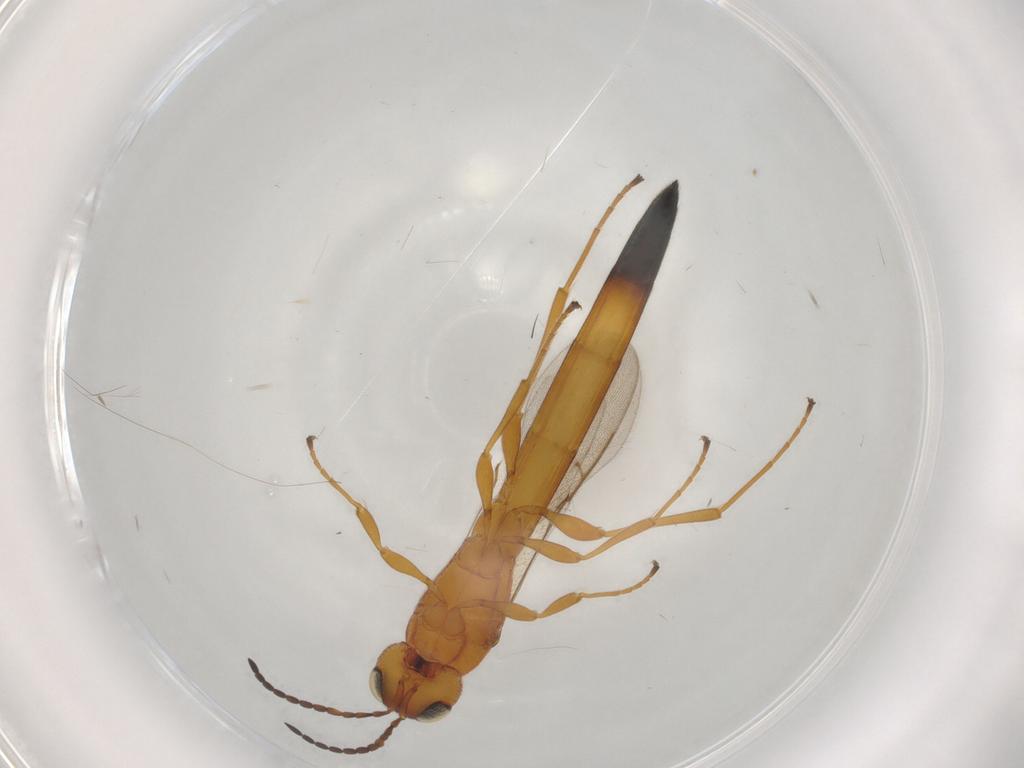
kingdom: Animalia
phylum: Arthropoda
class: Insecta
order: Hymenoptera
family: Scelionidae
